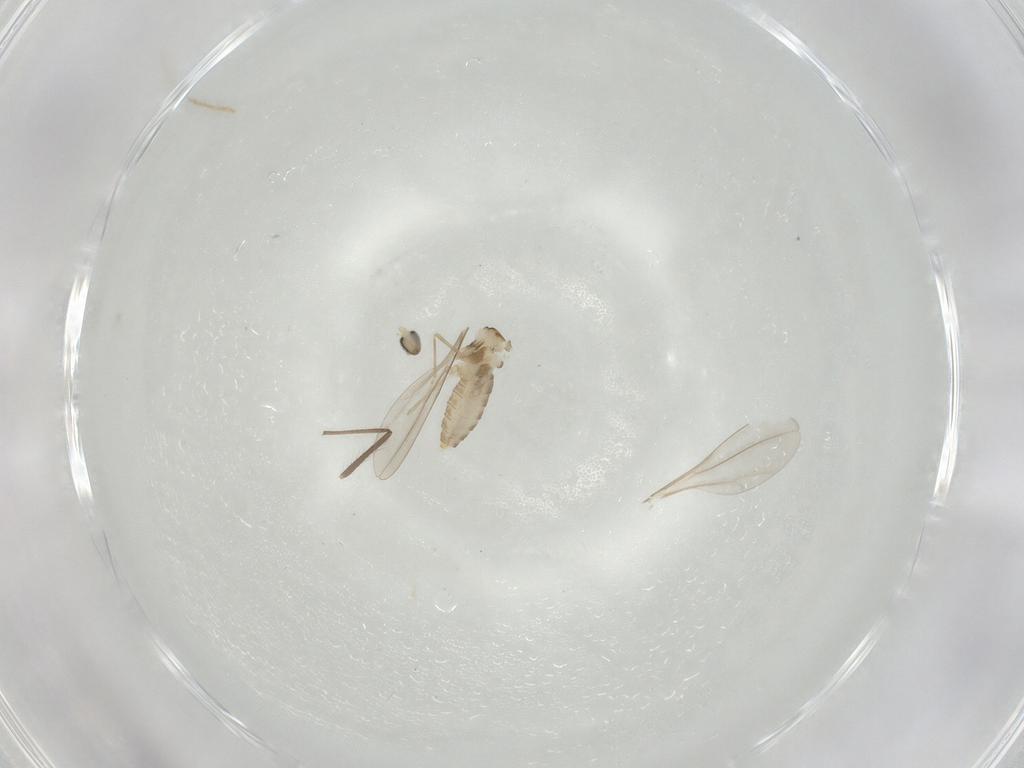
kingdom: Animalia
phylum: Arthropoda
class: Insecta
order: Diptera
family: Chironomidae
